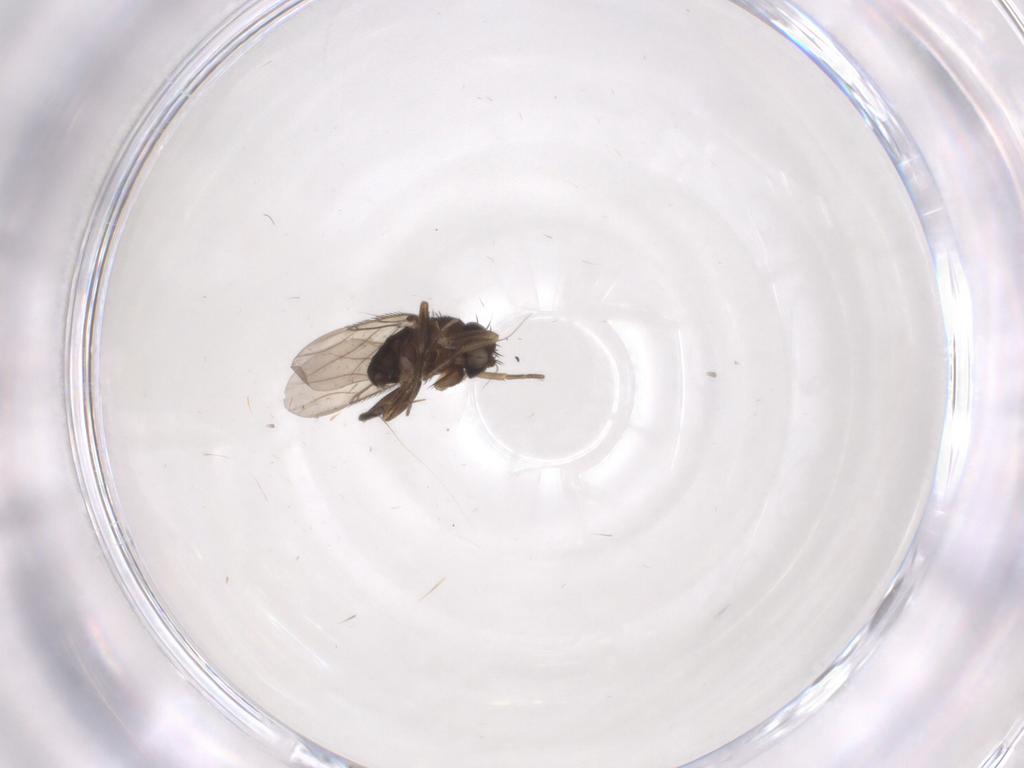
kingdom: Animalia
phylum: Arthropoda
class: Insecta
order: Diptera
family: Phoridae
